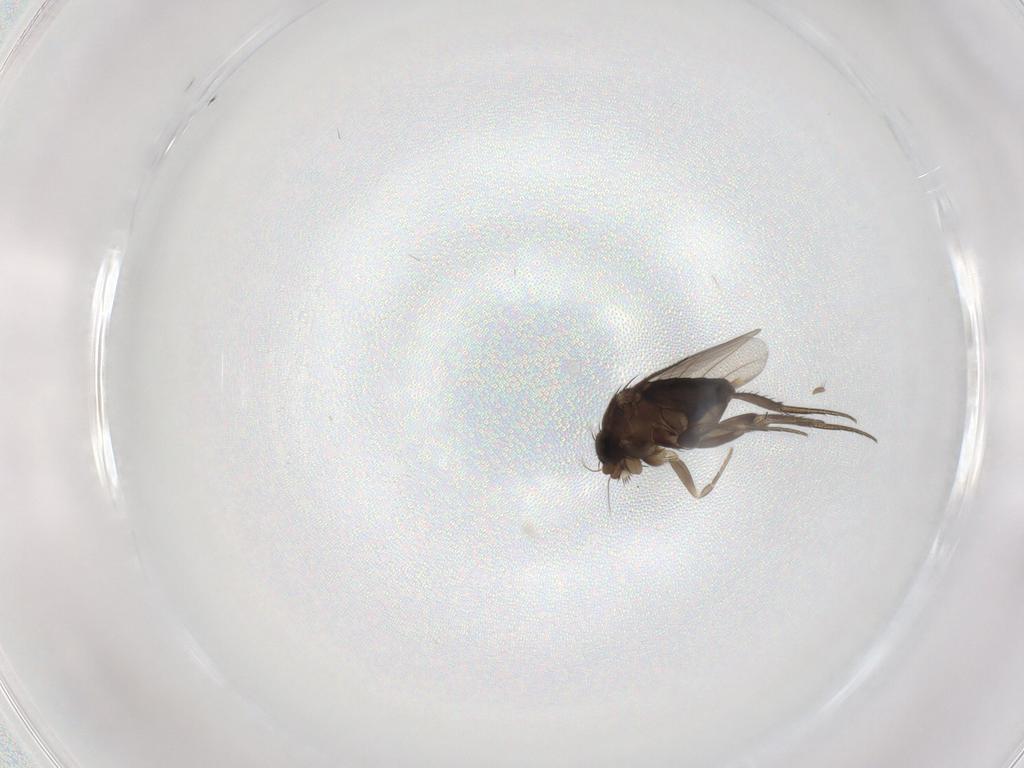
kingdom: Animalia
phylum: Arthropoda
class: Insecta
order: Diptera
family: Phoridae
